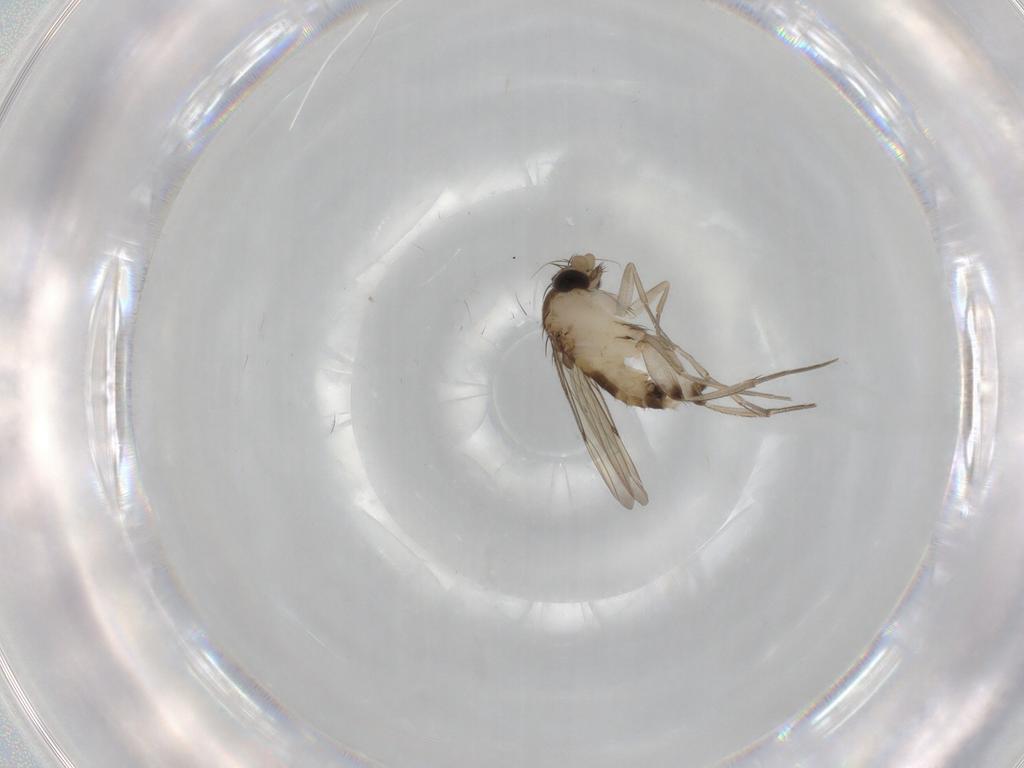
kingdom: Animalia
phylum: Arthropoda
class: Insecta
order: Diptera
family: Cecidomyiidae
